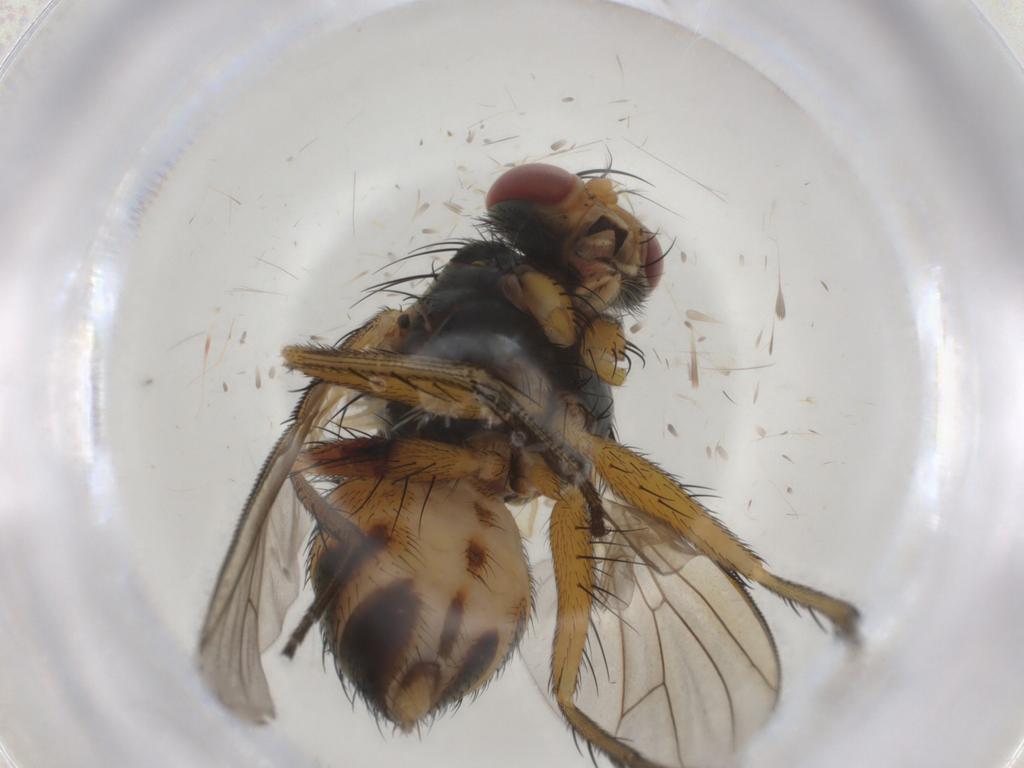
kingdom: Animalia
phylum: Arthropoda
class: Insecta
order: Diptera
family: Muscidae
